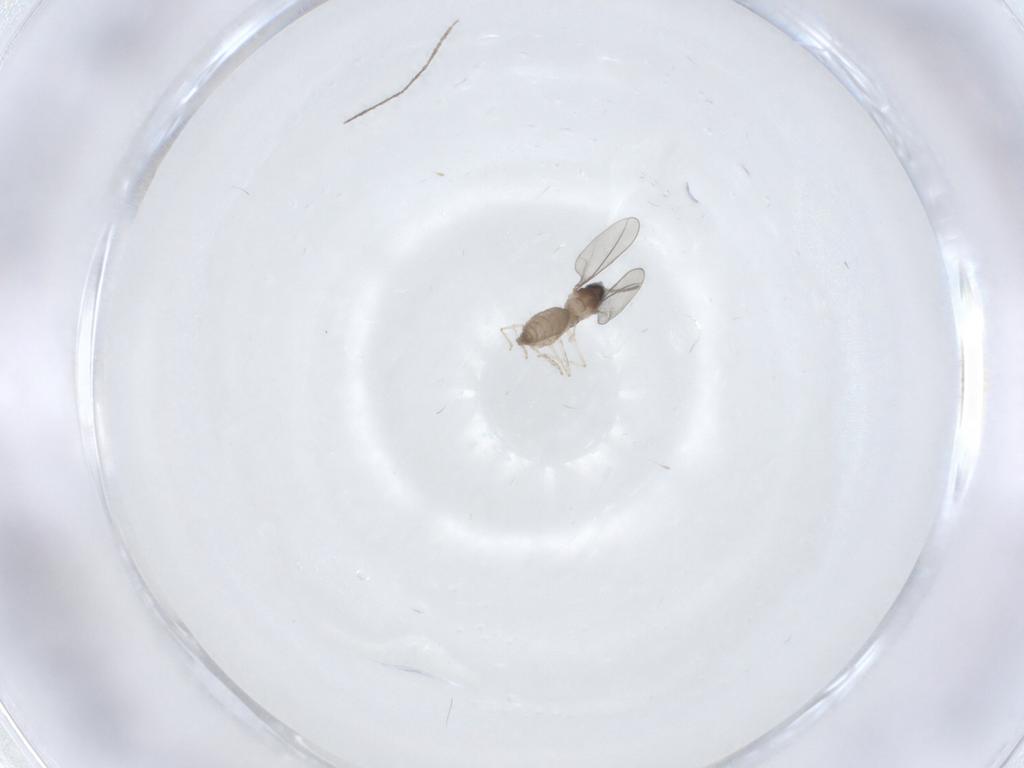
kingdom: Animalia
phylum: Arthropoda
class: Insecta
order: Diptera
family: Cecidomyiidae
